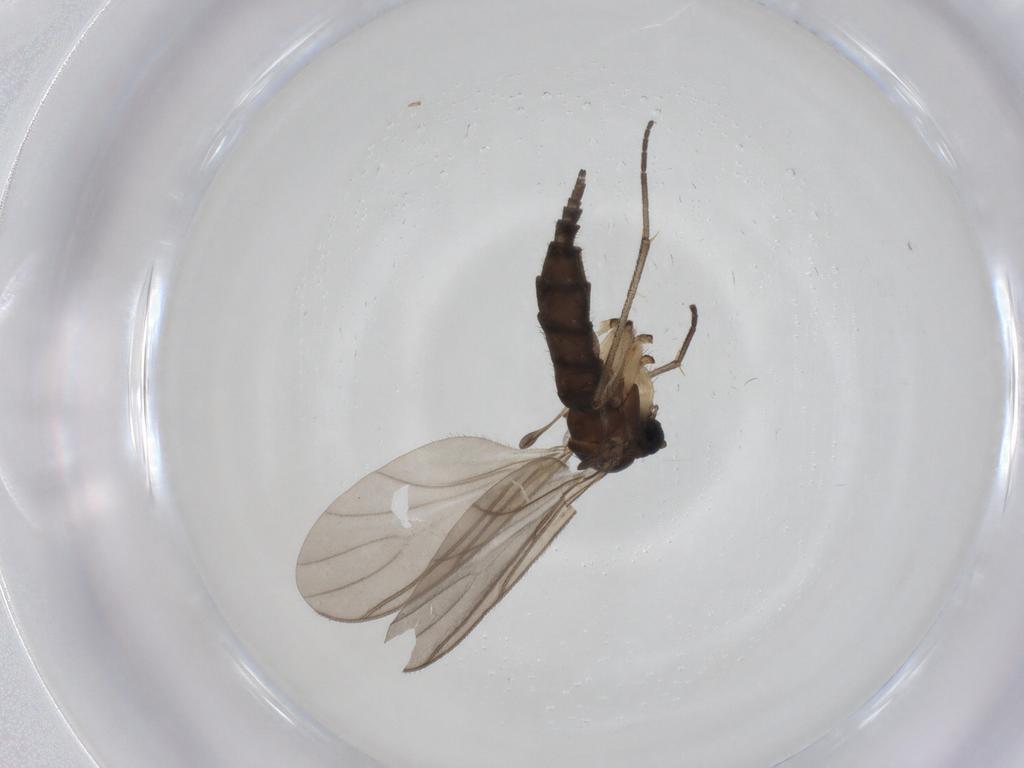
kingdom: Animalia
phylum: Arthropoda
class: Insecta
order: Diptera
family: Sciaridae
